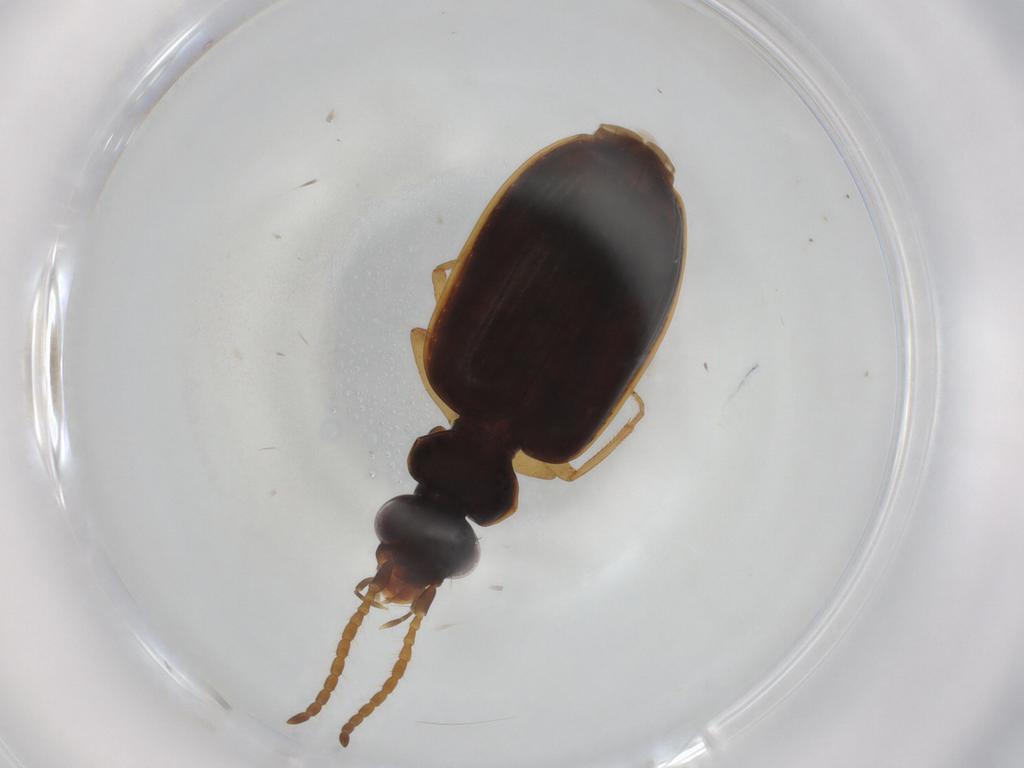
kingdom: Animalia
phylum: Arthropoda
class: Insecta
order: Coleoptera
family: Carabidae
